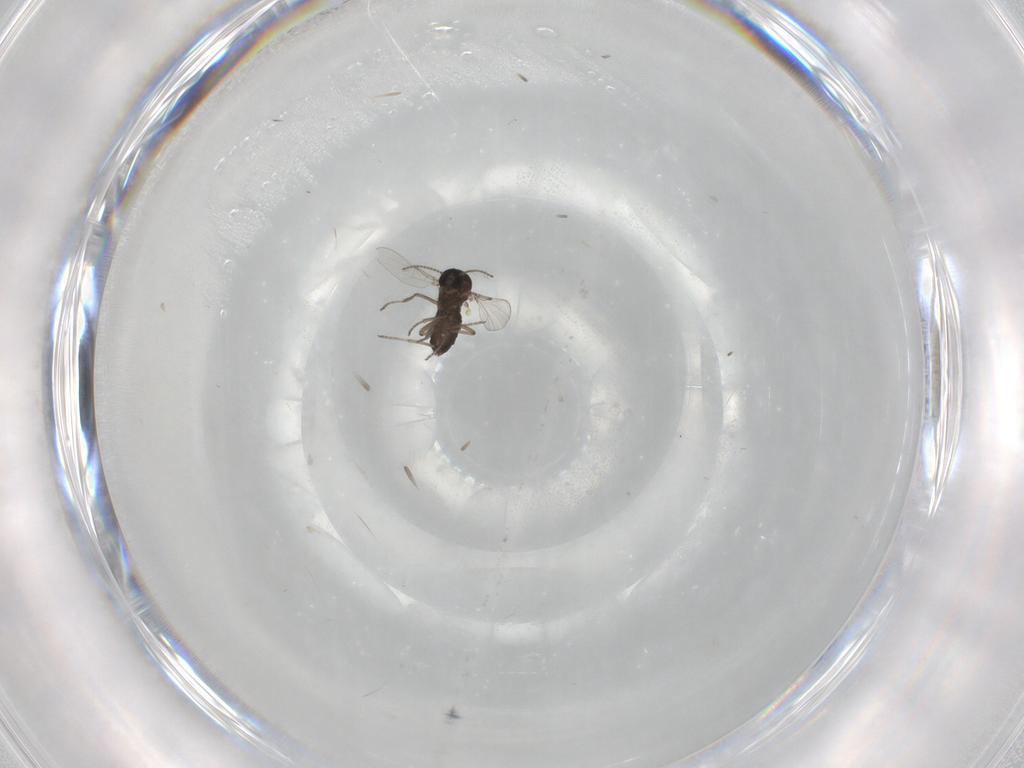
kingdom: Animalia
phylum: Arthropoda
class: Insecta
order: Diptera
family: Ceratopogonidae
